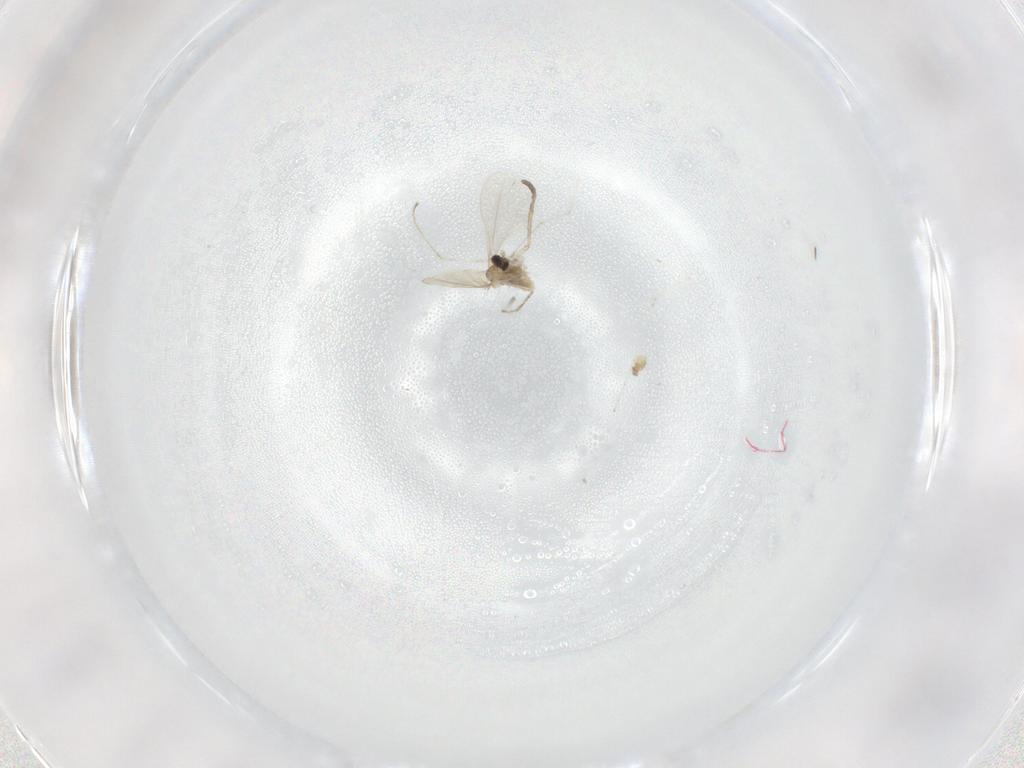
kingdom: Animalia
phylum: Arthropoda
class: Insecta
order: Diptera
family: Cecidomyiidae
